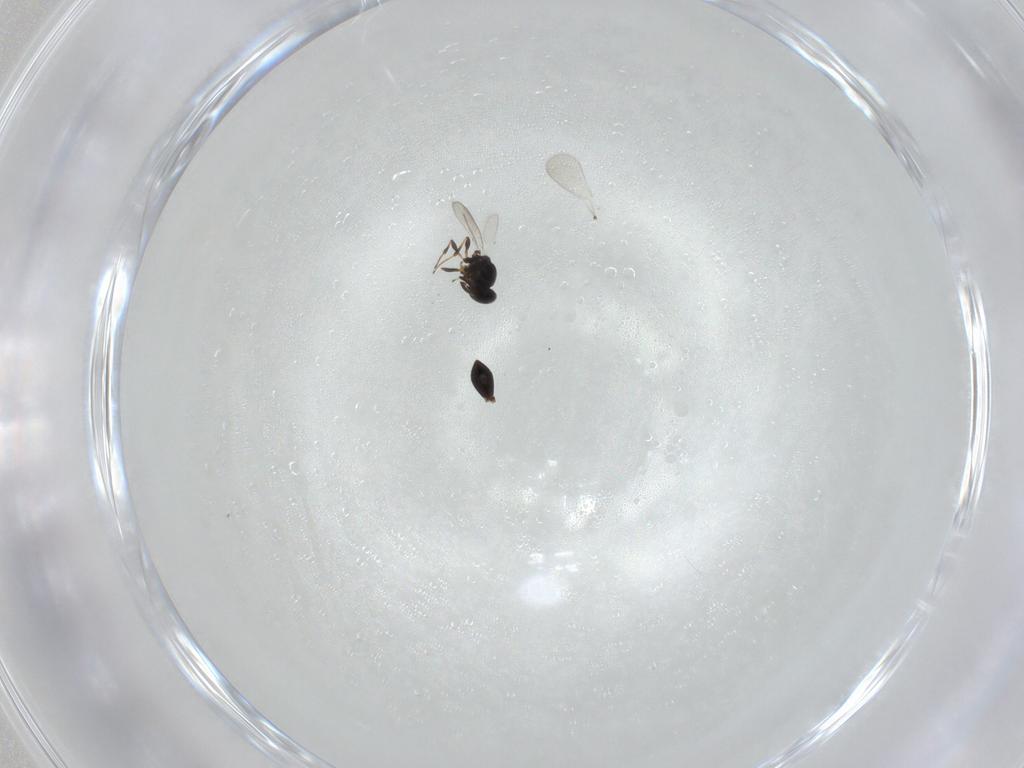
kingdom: Animalia
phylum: Arthropoda
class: Insecta
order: Hymenoptera
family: Platygastridae
